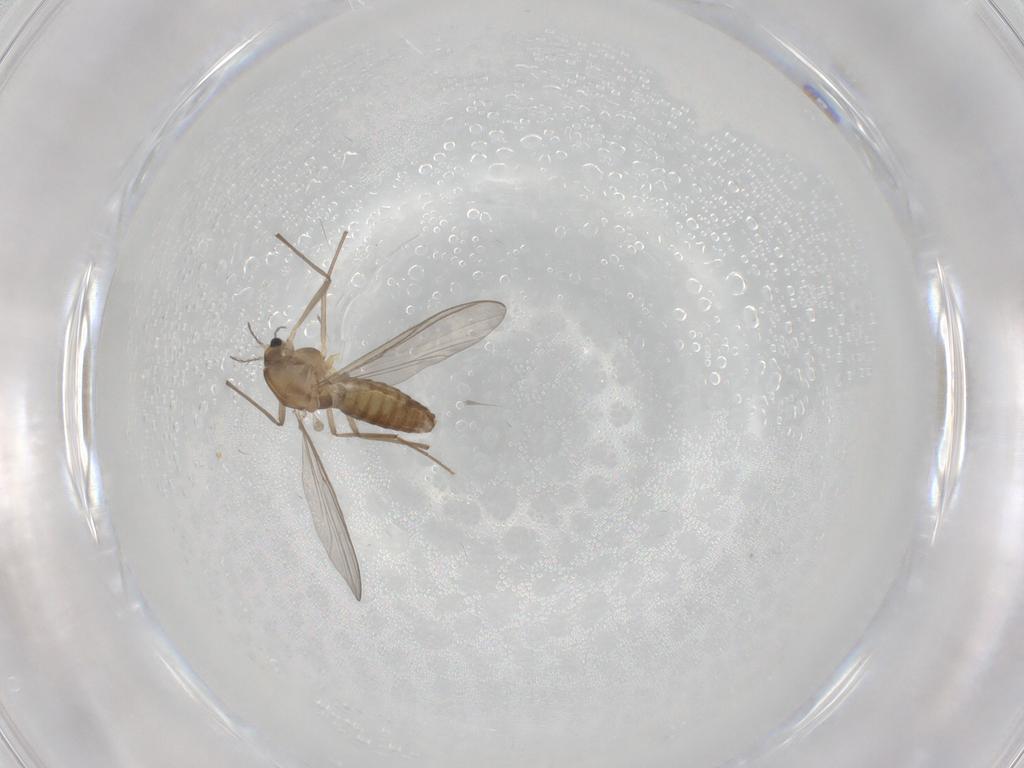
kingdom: Animalia
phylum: Arthropoda
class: Insecta
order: Diptera
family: Chironomidae
